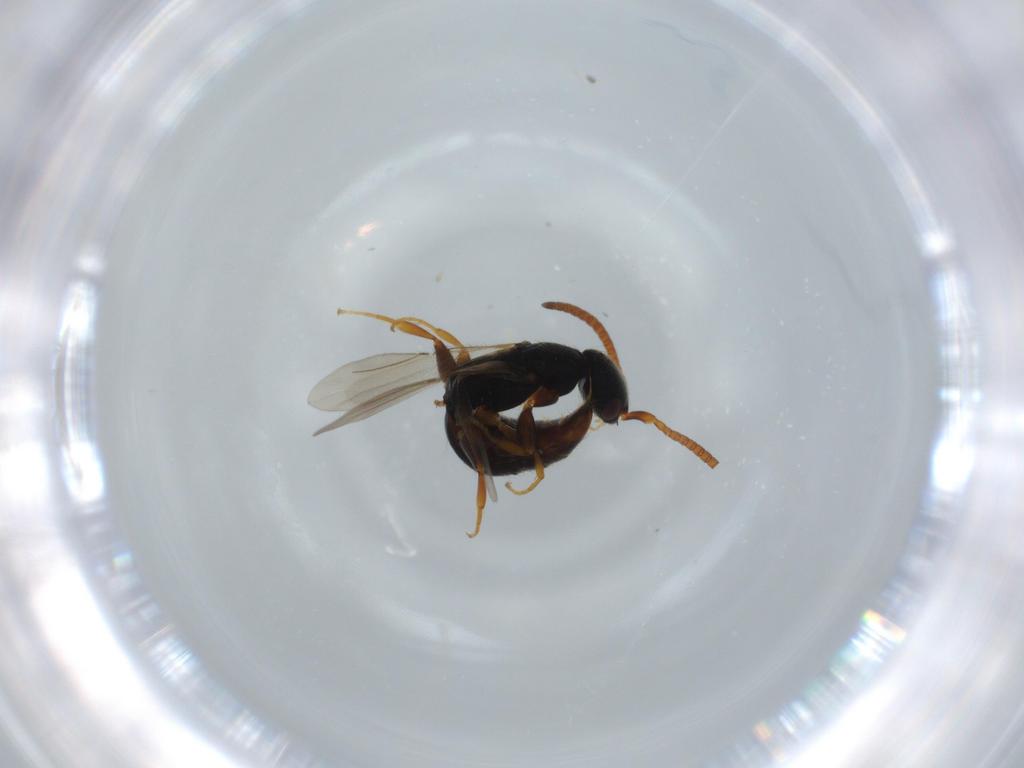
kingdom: Animalia
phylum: Arthropoda
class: Insecta
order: Hymenoptera
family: Bethylidae
